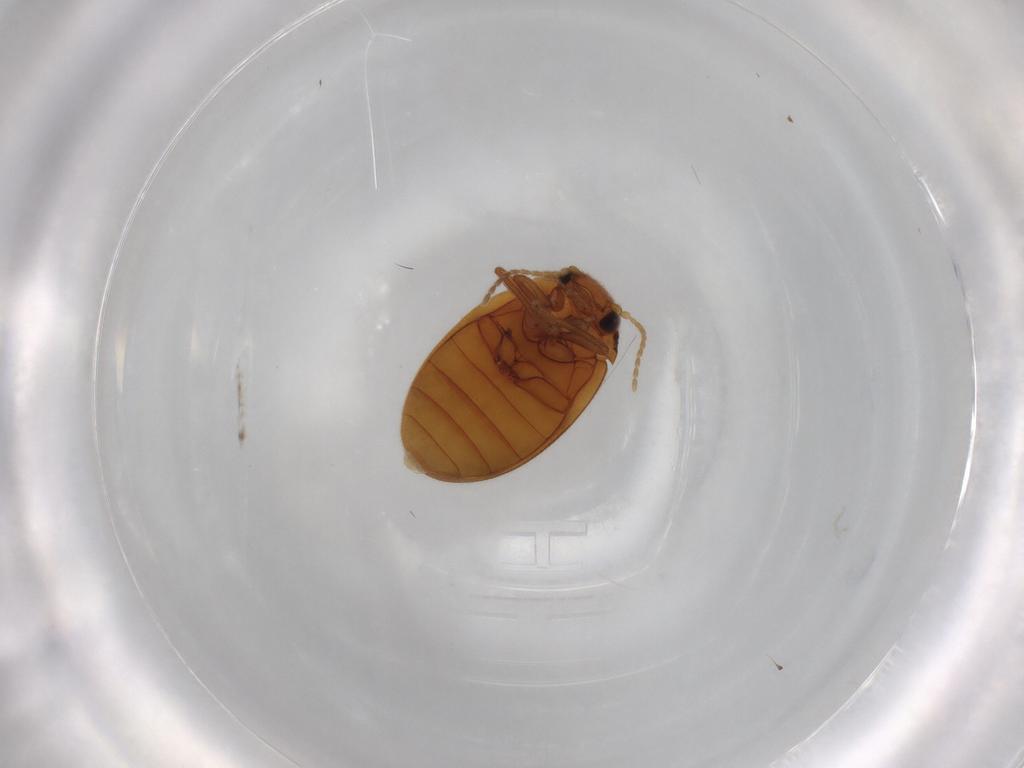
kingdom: Animalia
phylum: Arthropoda
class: Insecta
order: Coleoptera
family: Scirtidae
